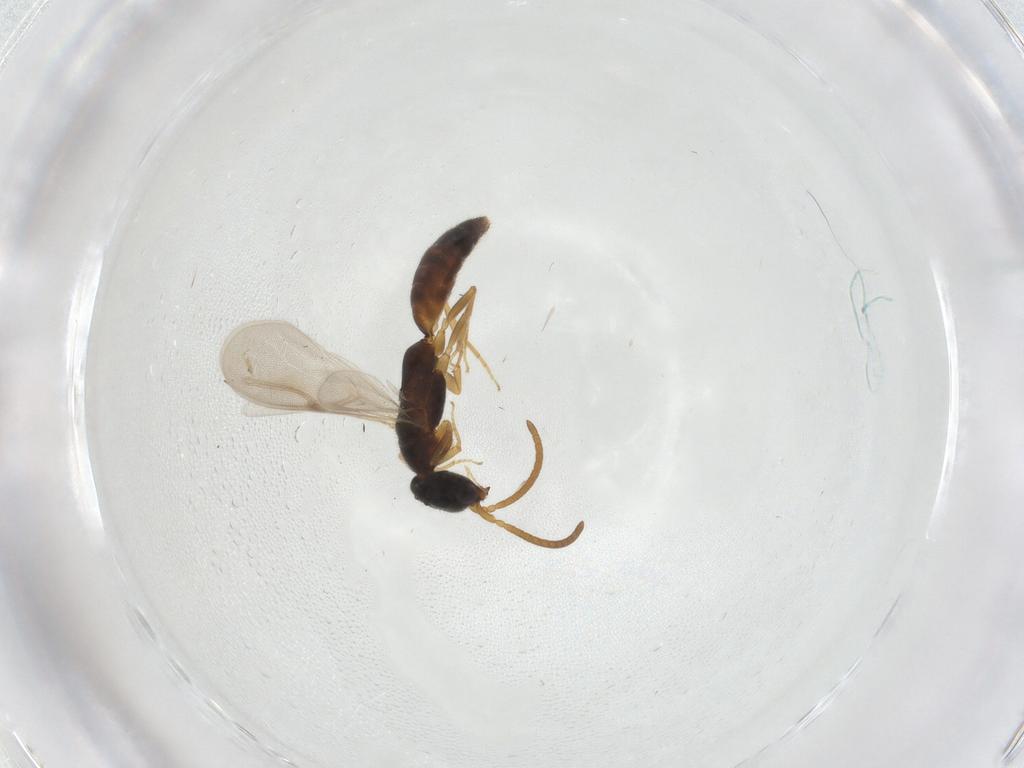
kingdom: Animalia
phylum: Arthropoda
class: Insecta
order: Hymenoptera
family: Bethylidae
